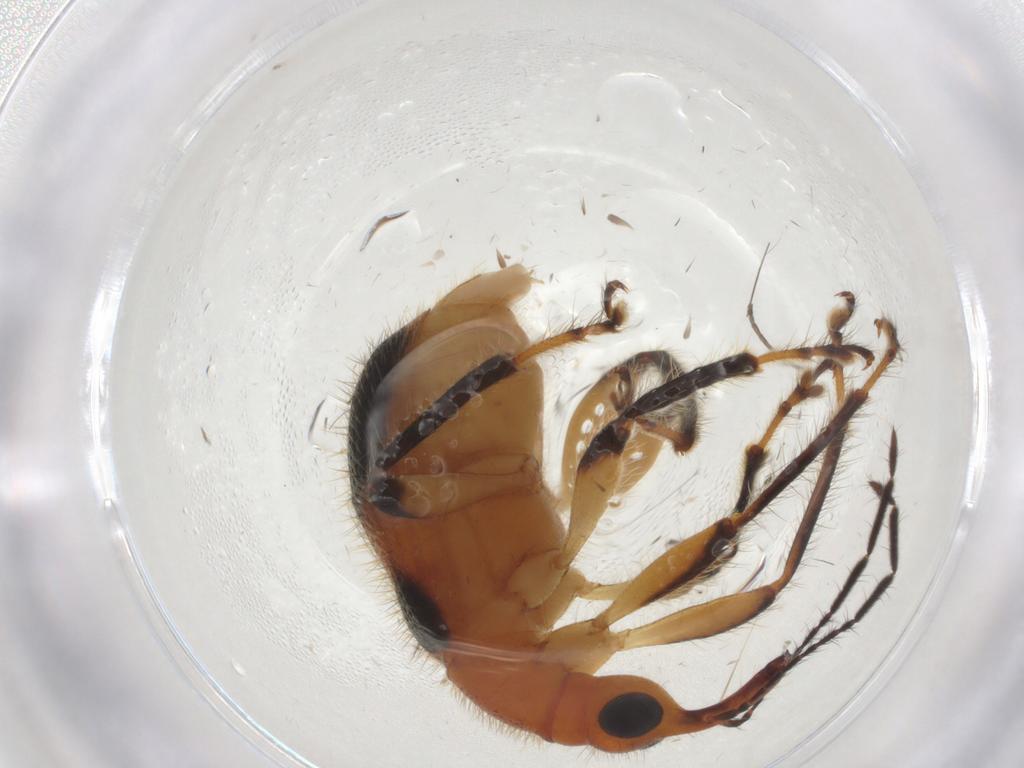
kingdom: Animalia
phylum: Arthropoda
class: Insecta
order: Coleoptera
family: Attelabidae
